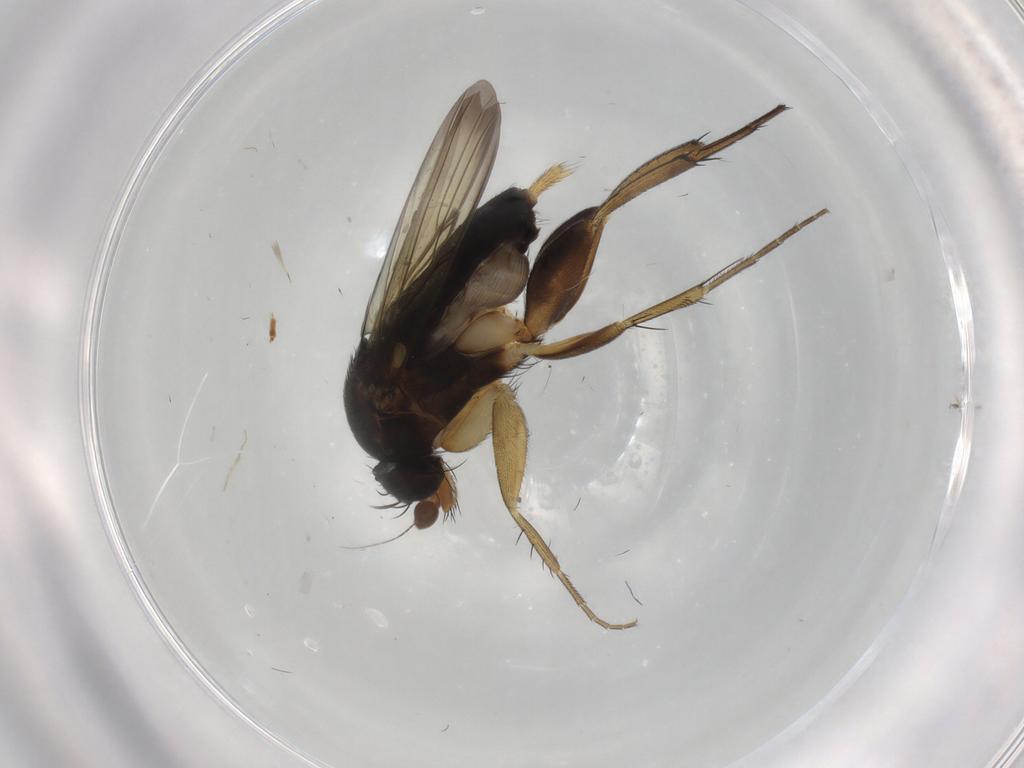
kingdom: Animalia
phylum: Arthropoda
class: Insecta
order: Diptera
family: Phoridae
